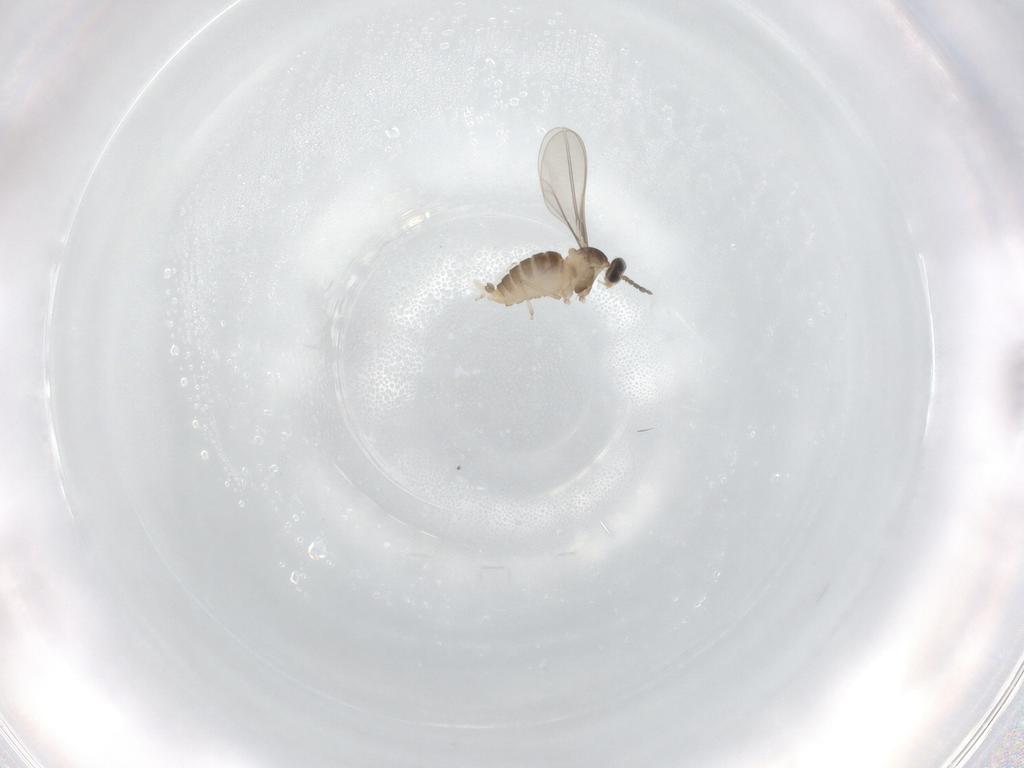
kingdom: Animalia
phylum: Arthropoda
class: Insecta
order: Diptera
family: Cecidomyiidae
